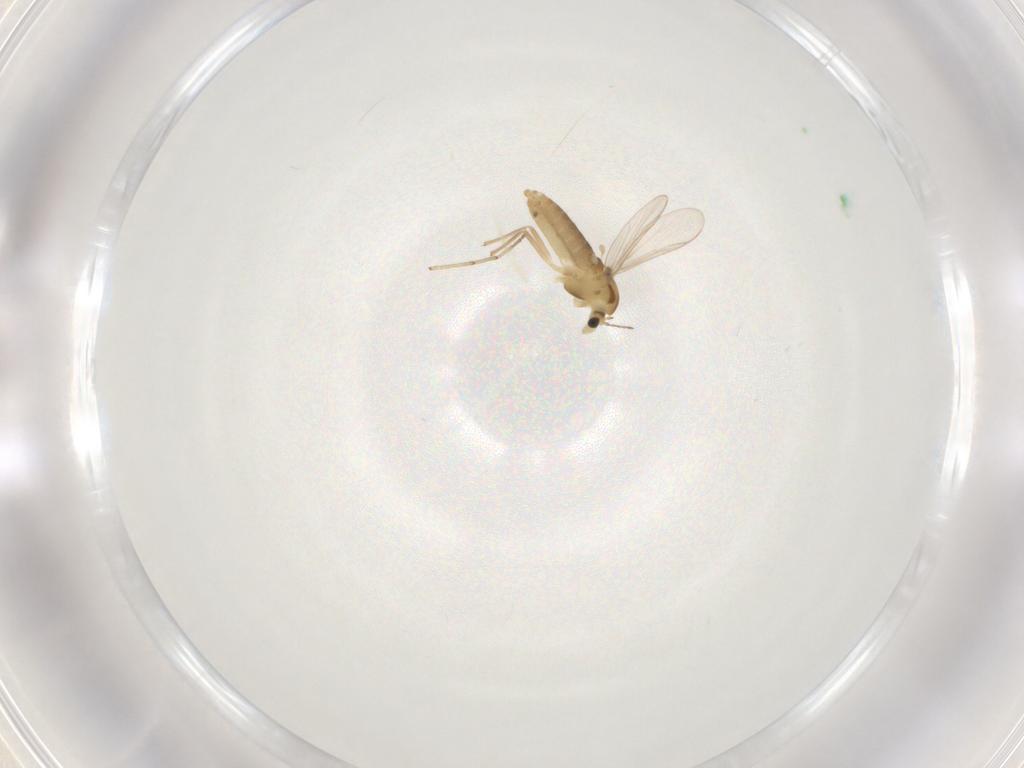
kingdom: Animalia
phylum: Arthropoda
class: Insecta
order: Diptera
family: Chironomidae
